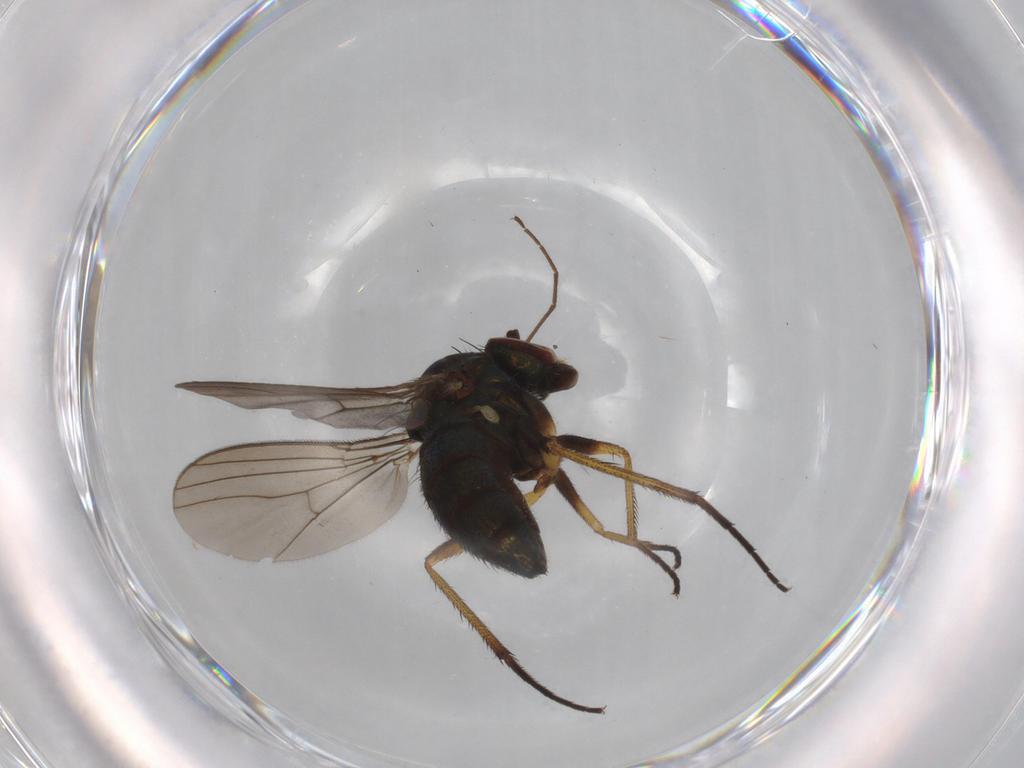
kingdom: Animalia
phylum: Arthropoda
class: Insecta
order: Diptera
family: Dolichopodidae
